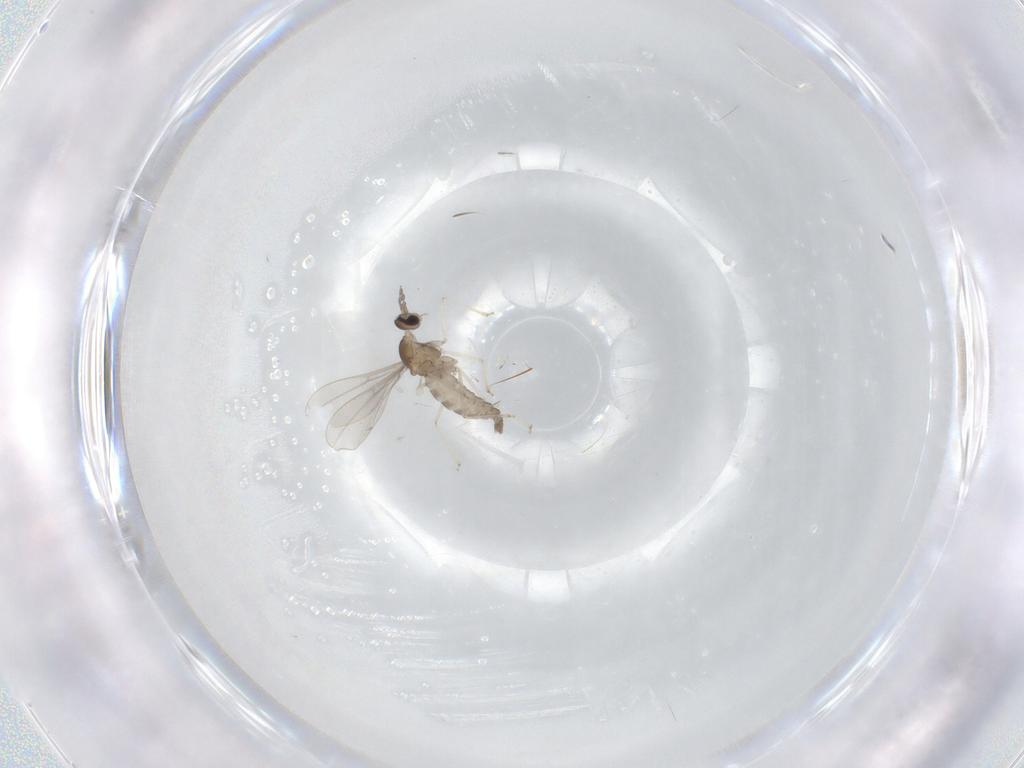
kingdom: Animalia
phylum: Arthropoda
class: Insecta
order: Diptera
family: Cecidomyiidae
